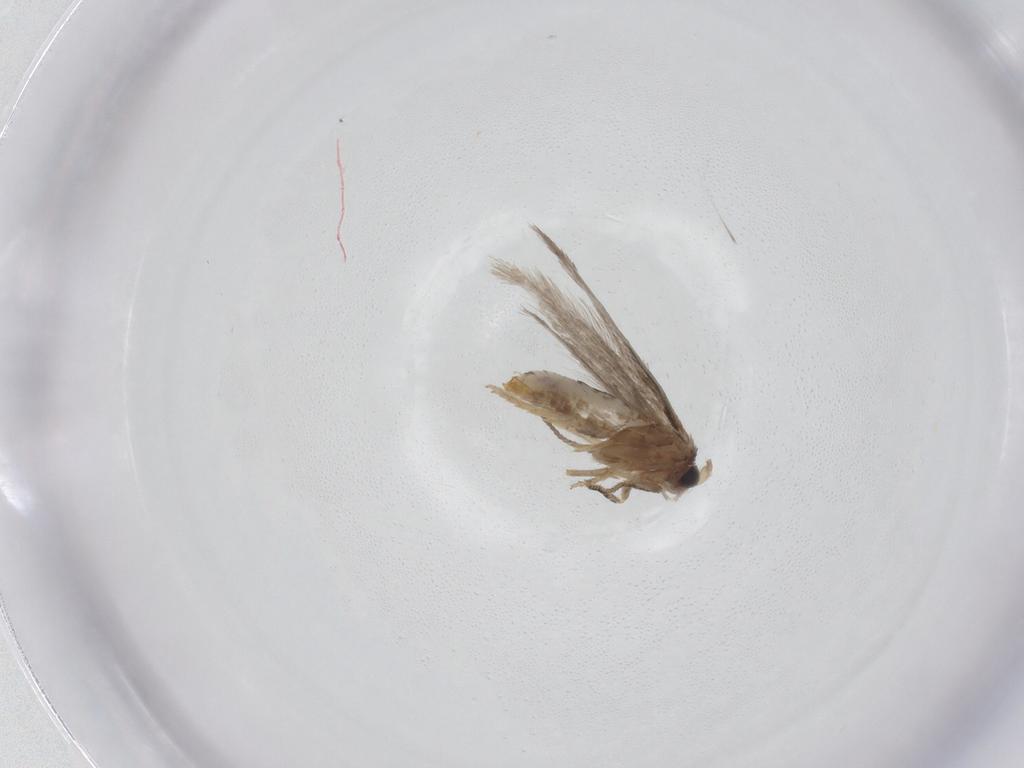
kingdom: Animalia
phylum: Arthropoda
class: Insecta
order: Lepidoptera
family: Nepticulidae
